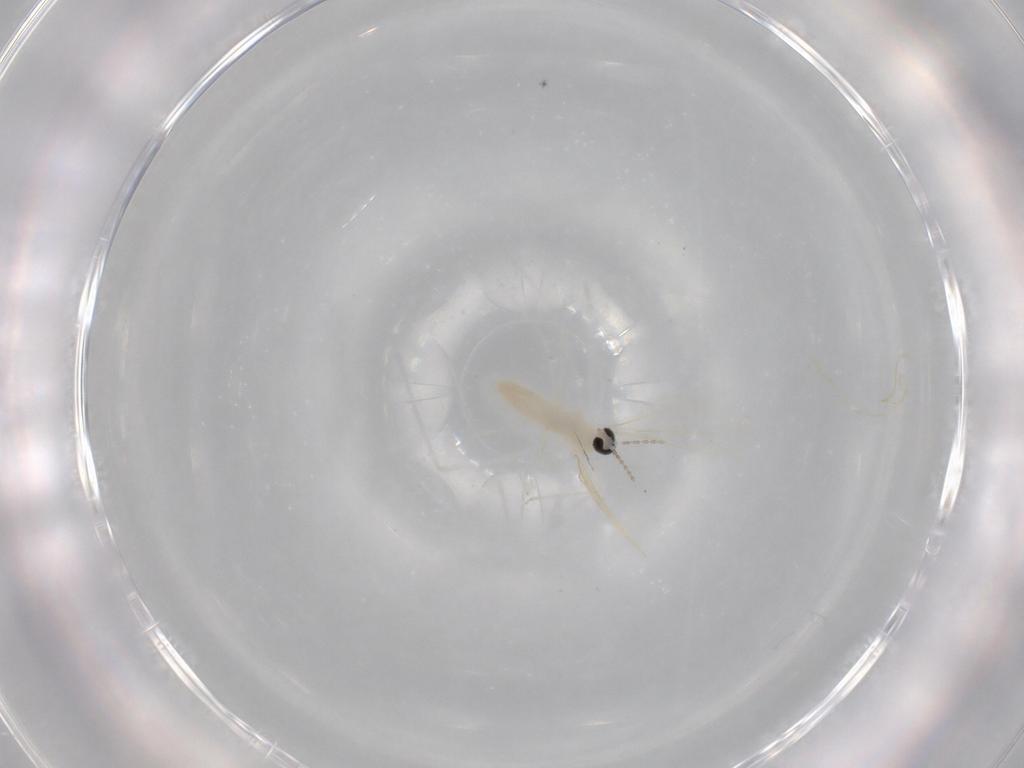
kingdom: Animalia
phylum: Arthropoda
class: Insecta
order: Diptera
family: Cecidomyiidae
